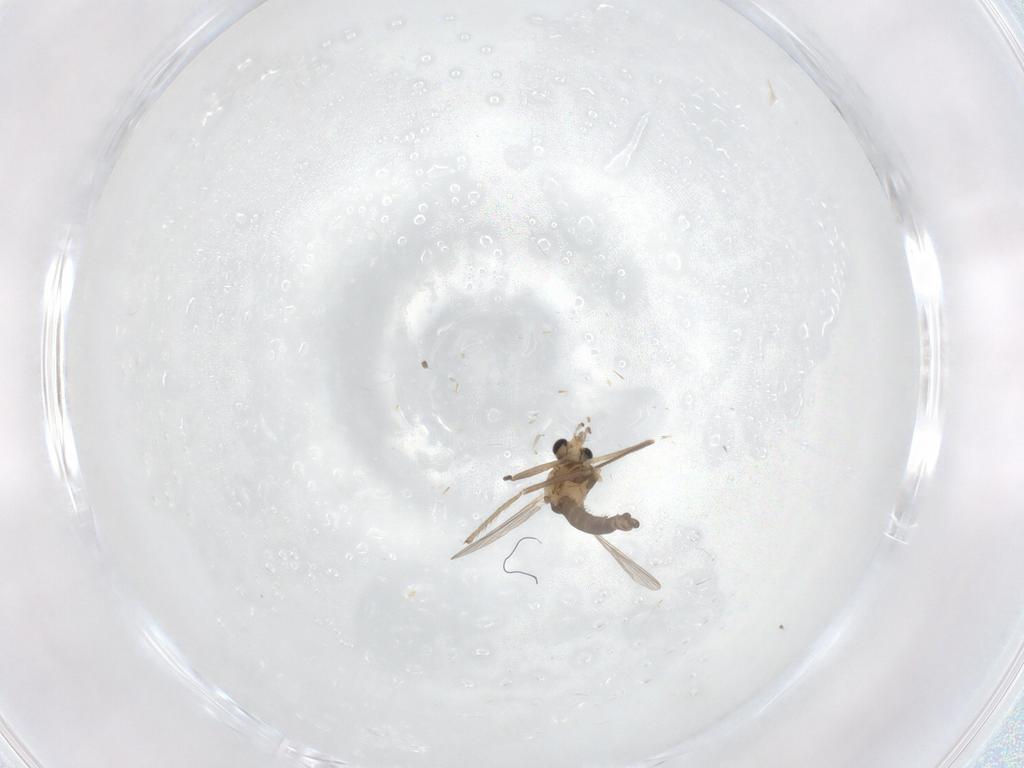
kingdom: Animalia
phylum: Arthropoda
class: Insecta
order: Diptera
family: Chironomidae
